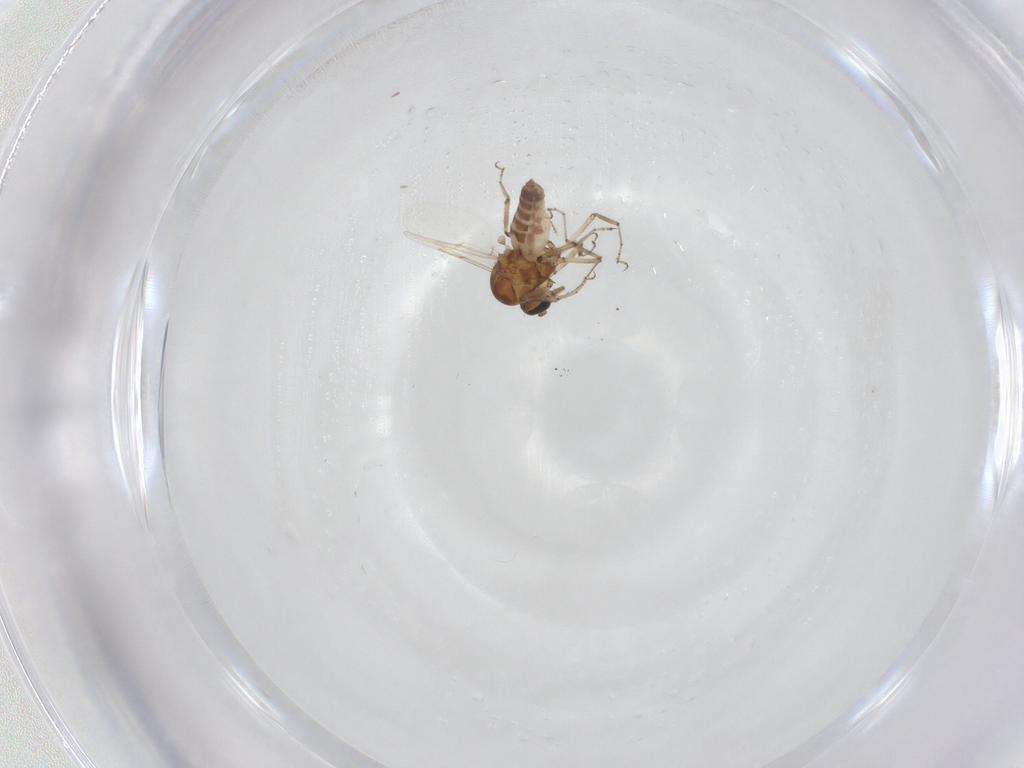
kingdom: Animalia
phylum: Arthropoda
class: Insecta
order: Diptera
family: Ceratopogonidae
